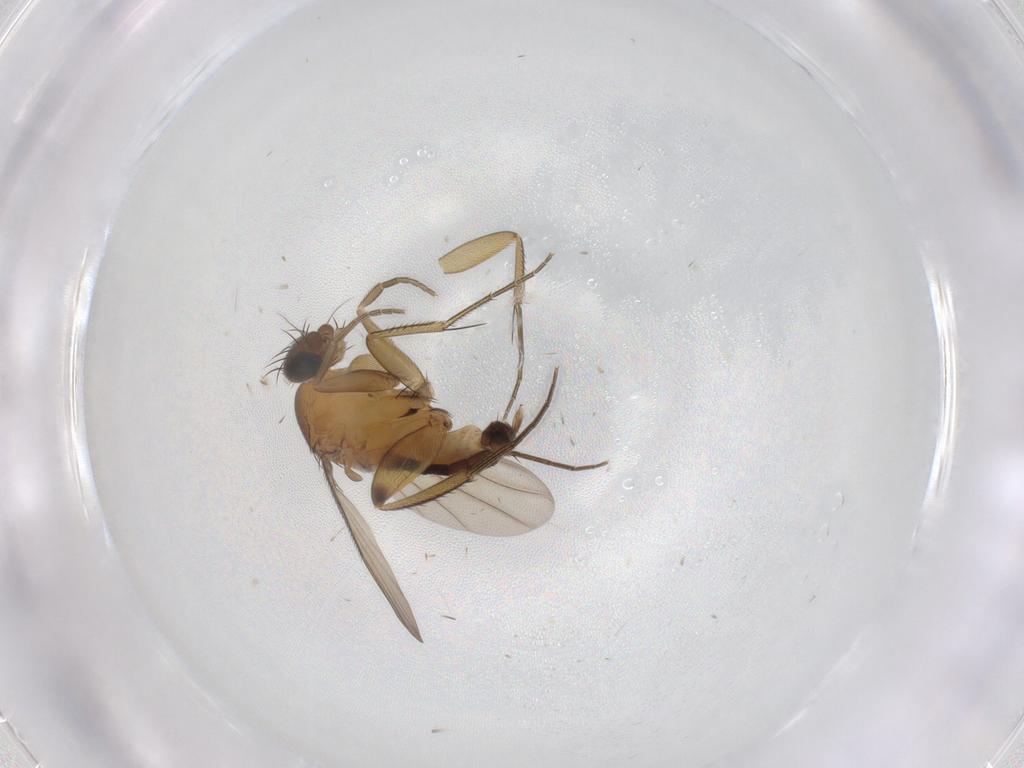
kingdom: Animalia
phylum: Arthropoda
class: Insecta
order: Diptera
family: Phoridae
